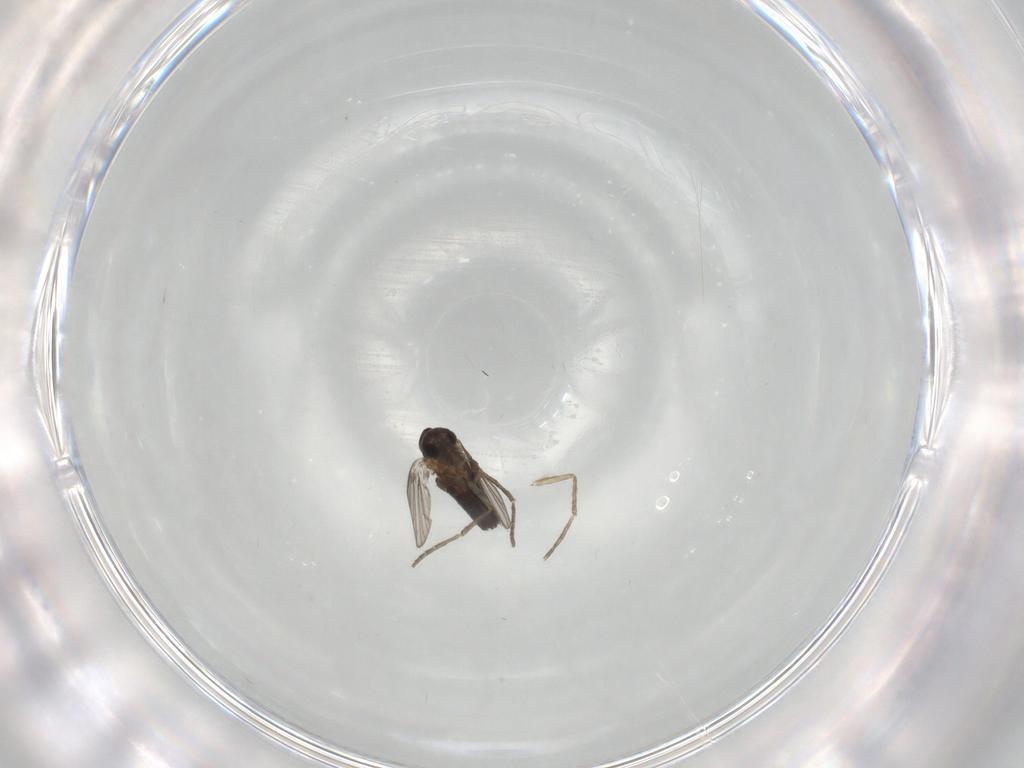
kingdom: Animalia
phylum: Arthropoda
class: Insecta
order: Diptera
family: Psychodidae
